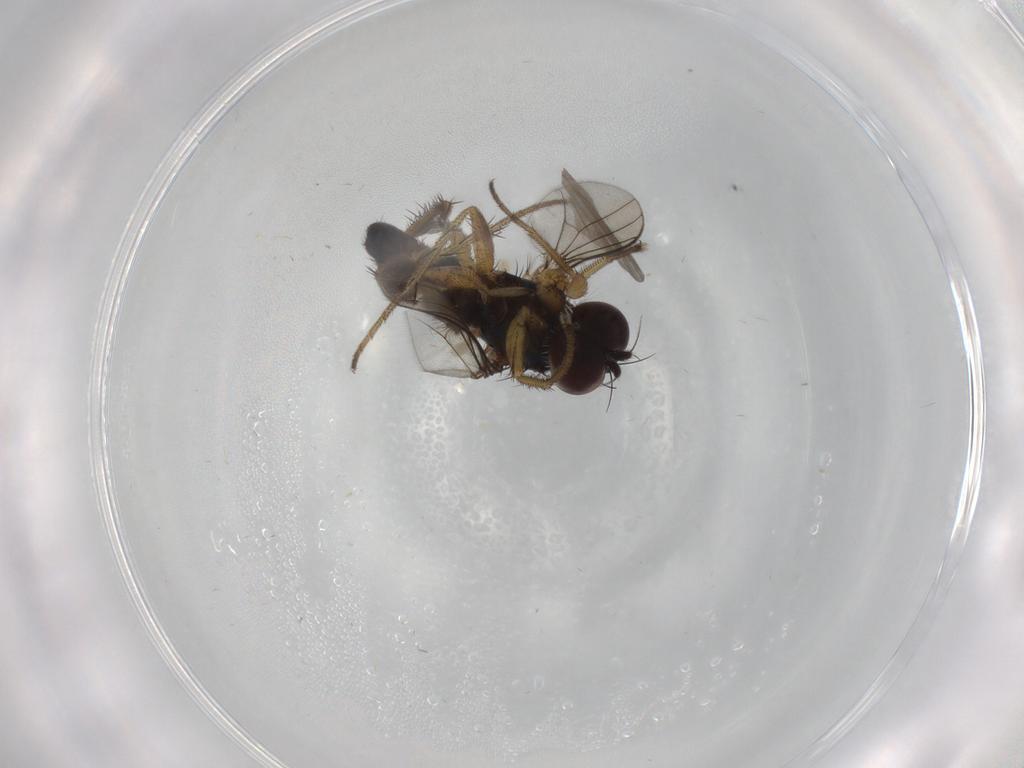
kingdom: Animalia
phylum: Arthropoda
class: Insecta
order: Diptera
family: Dolichopodidae
